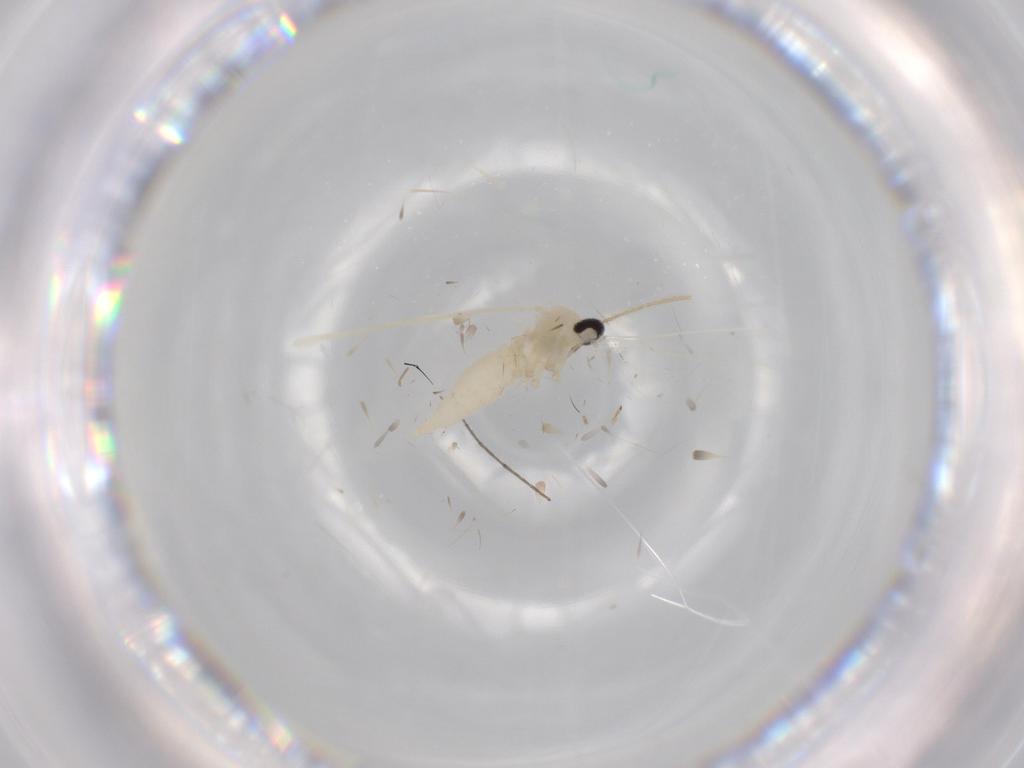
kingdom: Animalia
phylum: Arthropoda
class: Insecta
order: Diptera
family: Cecidomyiidae
